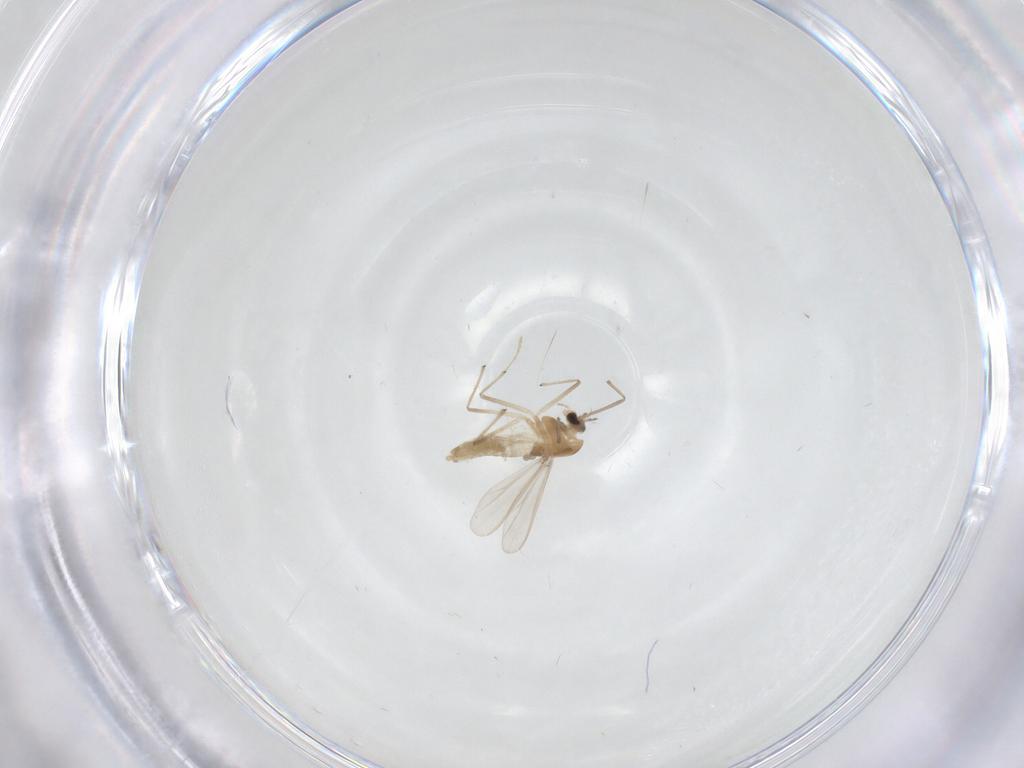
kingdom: Animalia
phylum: Arthropoda
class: Insecta
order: Diptera
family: Chironomidae
